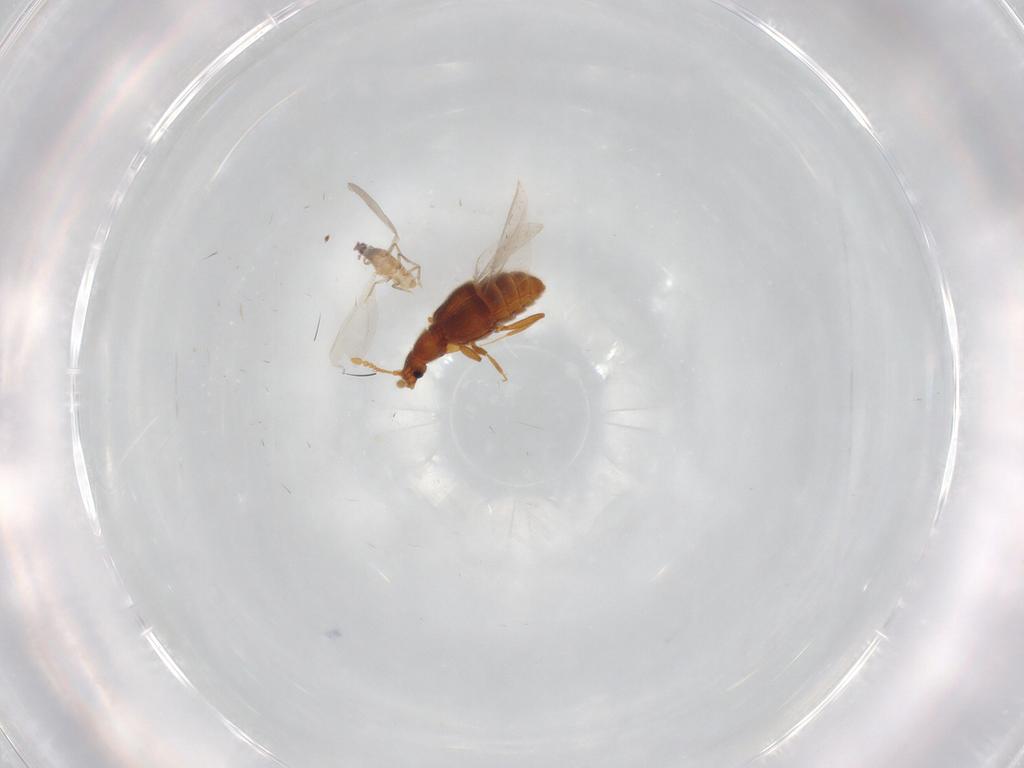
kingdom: Animalia
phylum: Arthropoda
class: Insecta
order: Coleoptera
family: Staphylinidae
